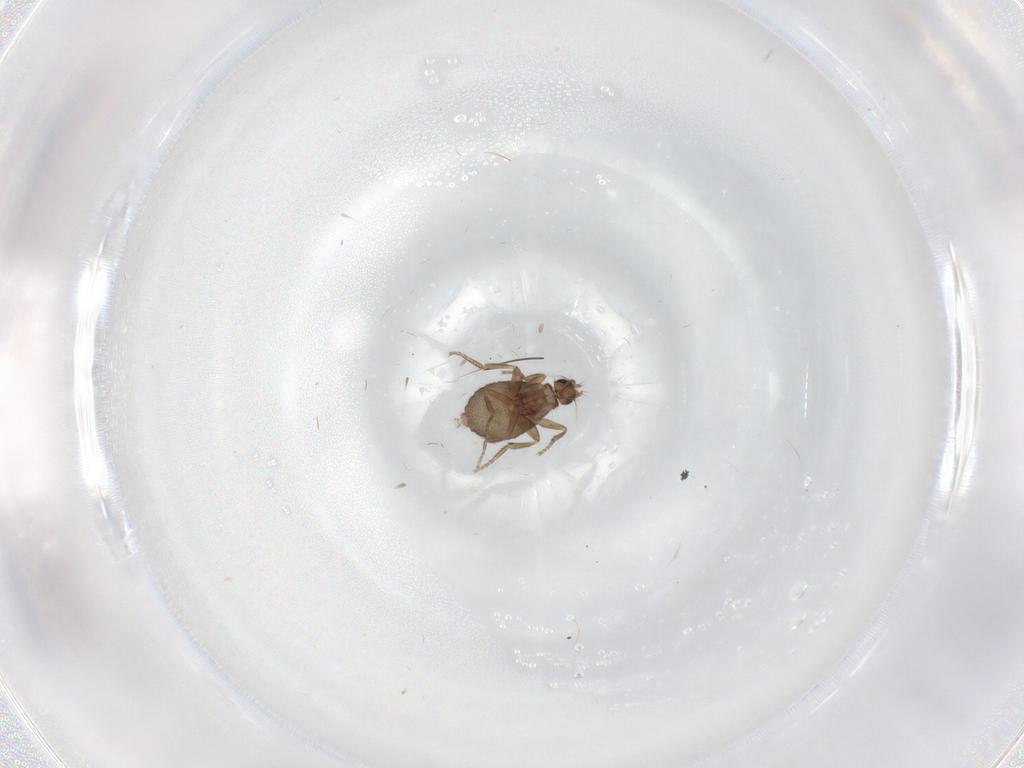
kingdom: Animalia
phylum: Arthropoda
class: Insecta
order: Diptera
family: Phoridae
